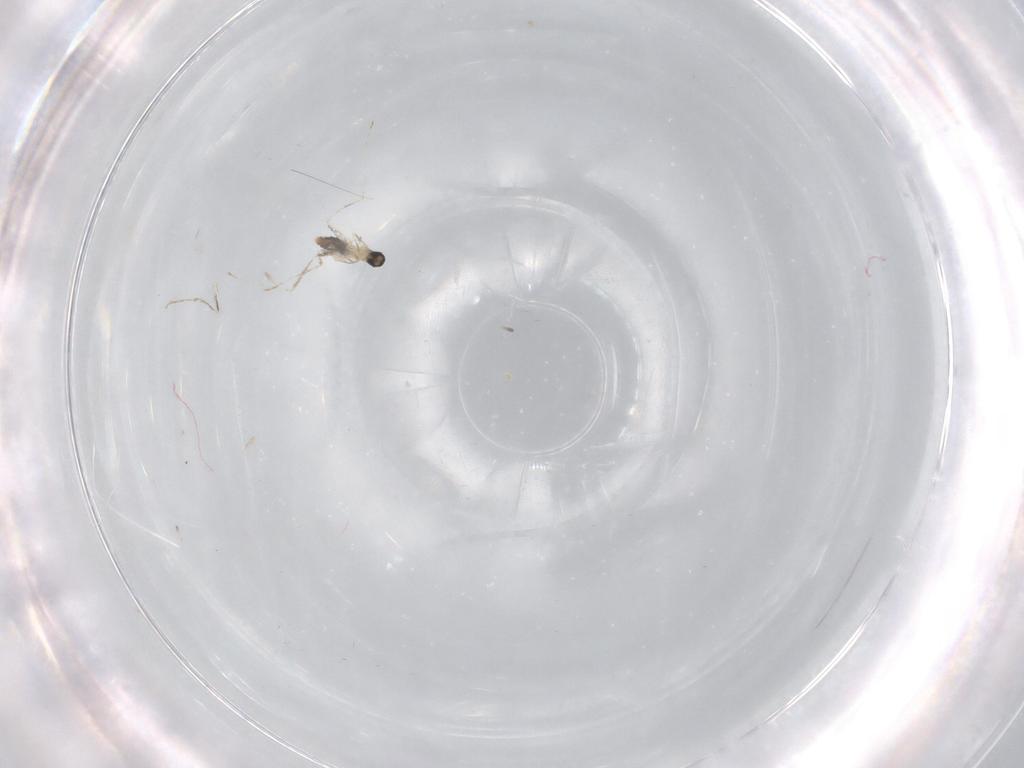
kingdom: Animalia
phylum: Arthropoda
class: Insecta
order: Diptera
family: Cecidomyiidae
